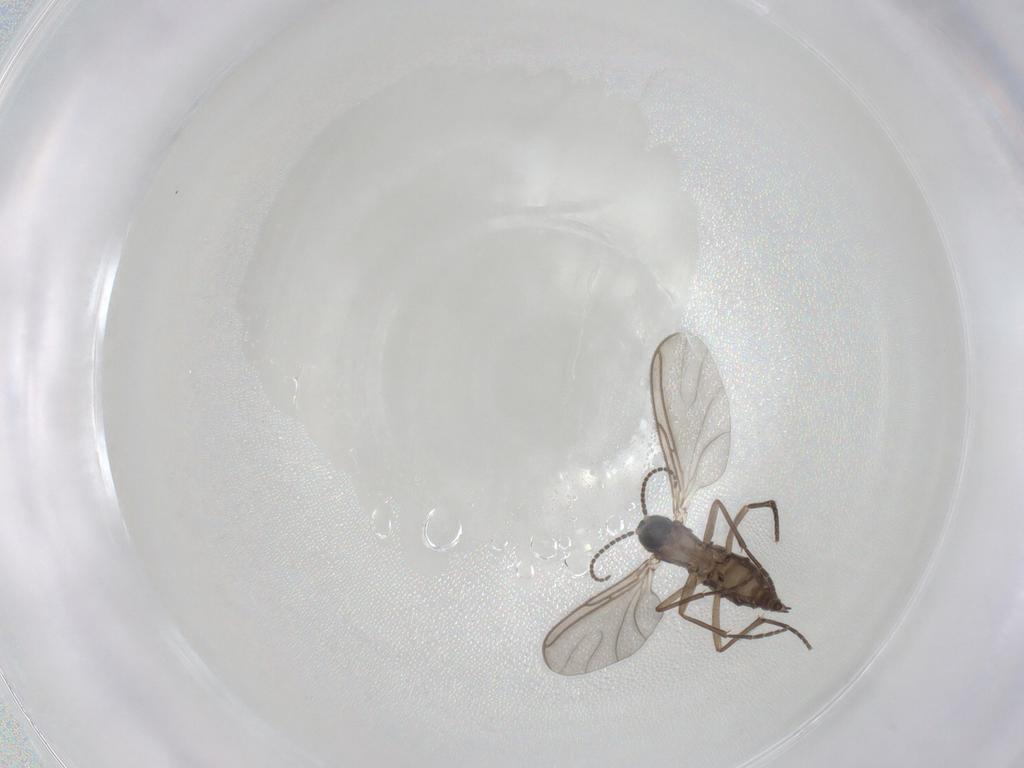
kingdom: Animalia
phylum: Arthropoda
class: Insecta
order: Diptera
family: Sciaridae
